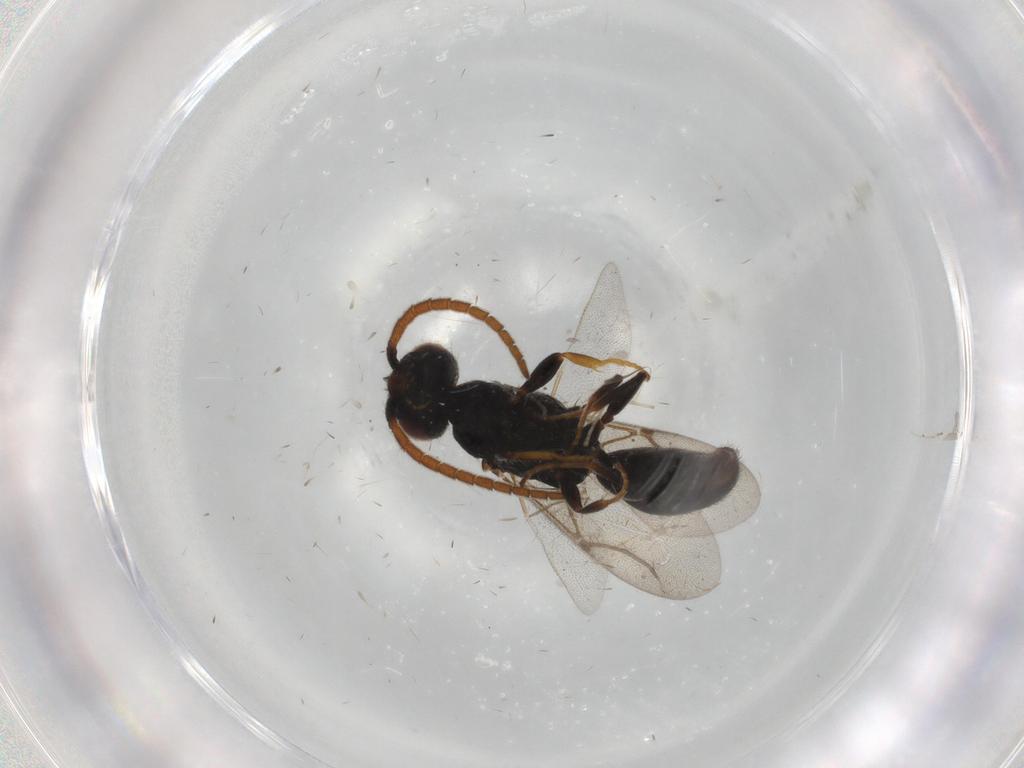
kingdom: Animalia
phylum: Arthropoda
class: Insecta
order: Hymenoptera
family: Bethylidae
